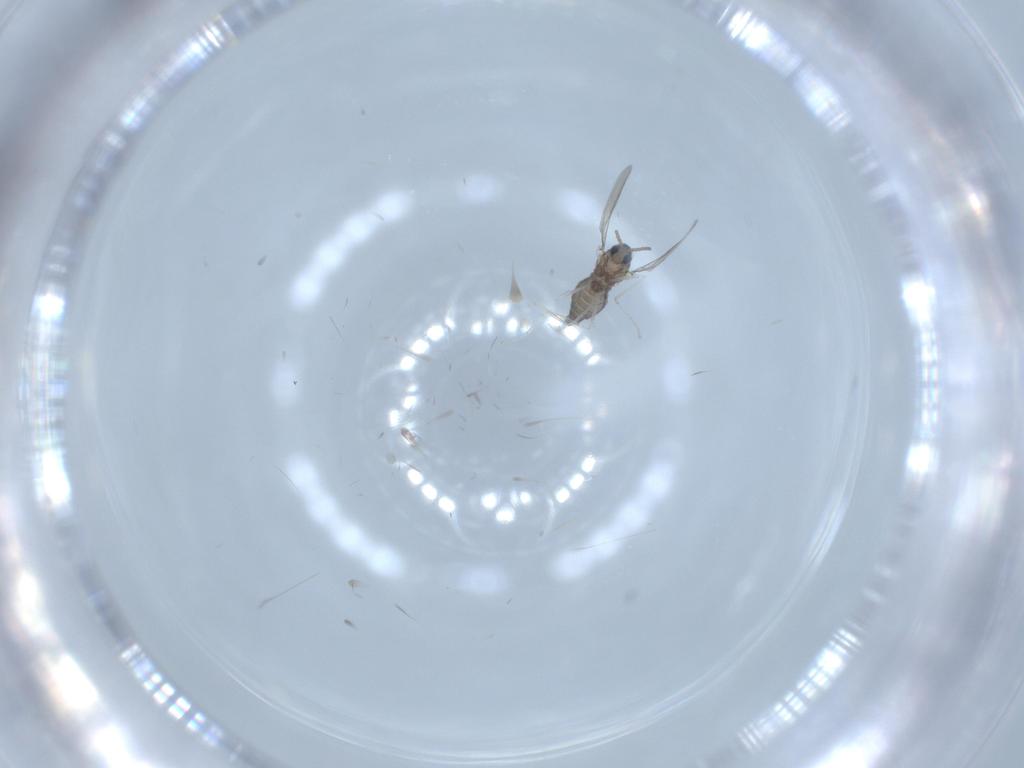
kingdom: Animalia
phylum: Arthropoda
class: Insecta
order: Diptera
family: Cecidomyiidae
